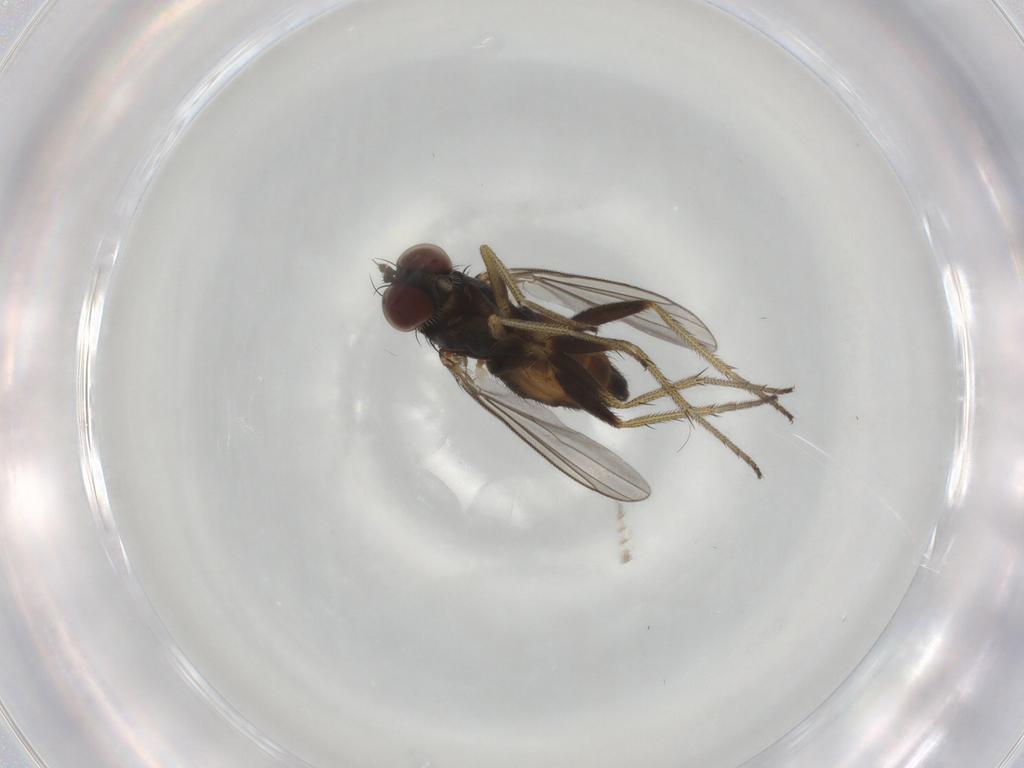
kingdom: Animalia
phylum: Arthropoda
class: Insecta
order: Diptera
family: Dolichopodidae
